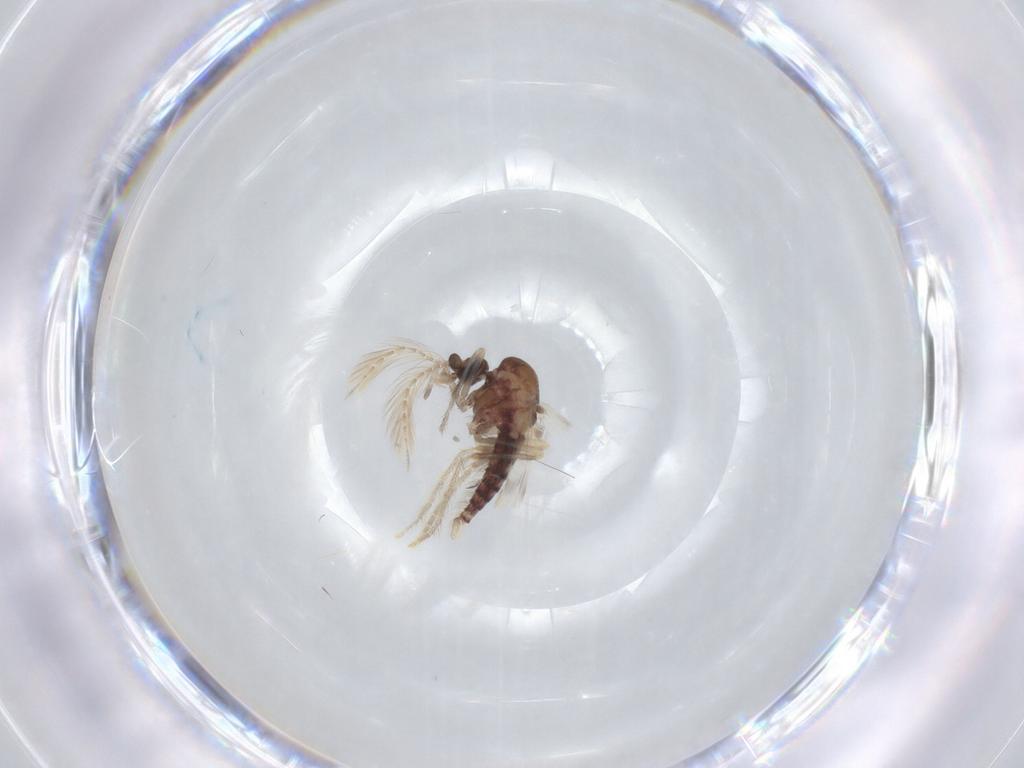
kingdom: Animalia
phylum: Arthropoda
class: Insecta
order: Diptera
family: Corethrellidae
